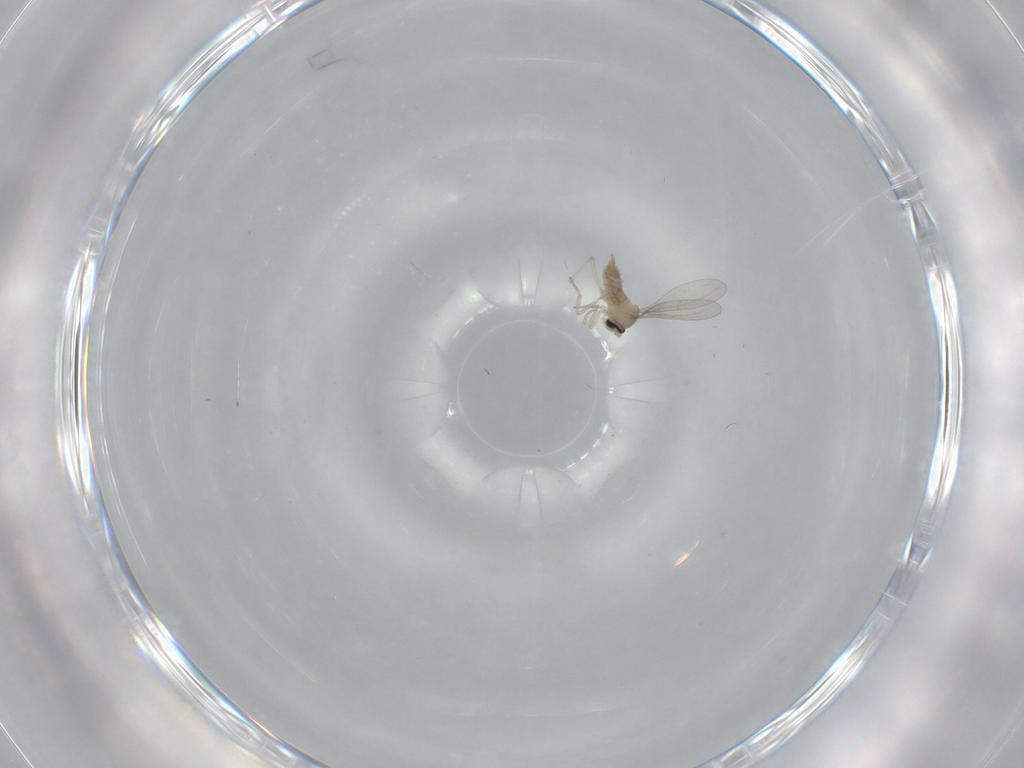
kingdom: Animalia
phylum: Arthropoda
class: Insecta
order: Diptera
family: Cecidomyiidae
